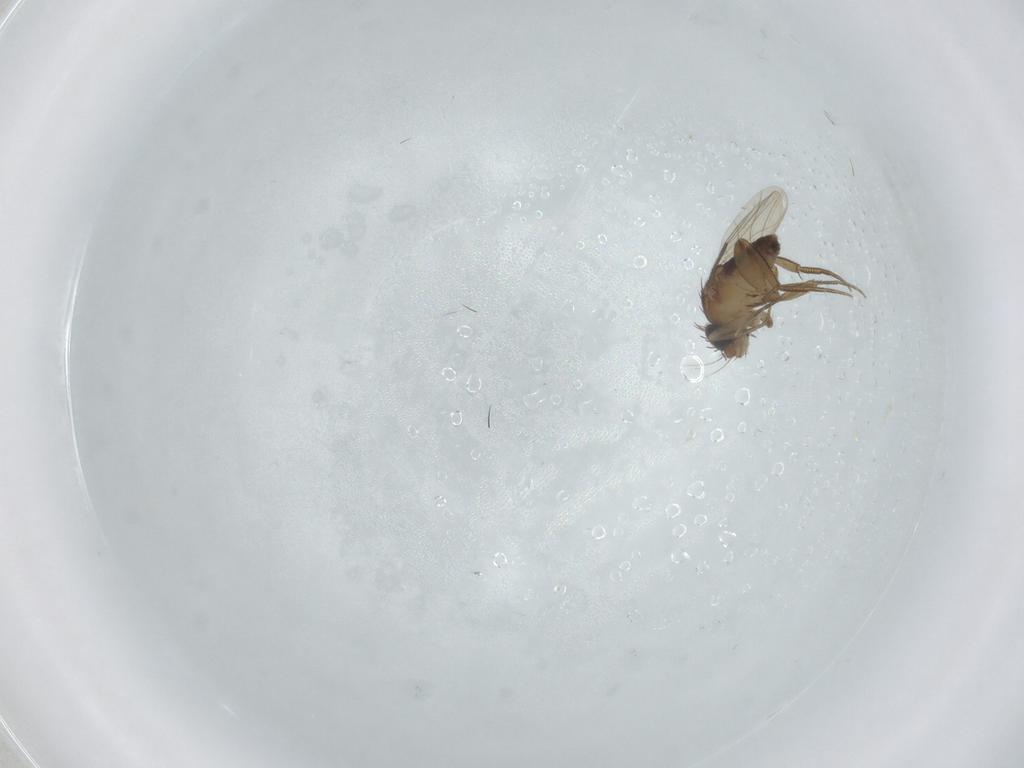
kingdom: Animalia
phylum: Arthropoda
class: Insecta
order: Diptera
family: Phoridae
